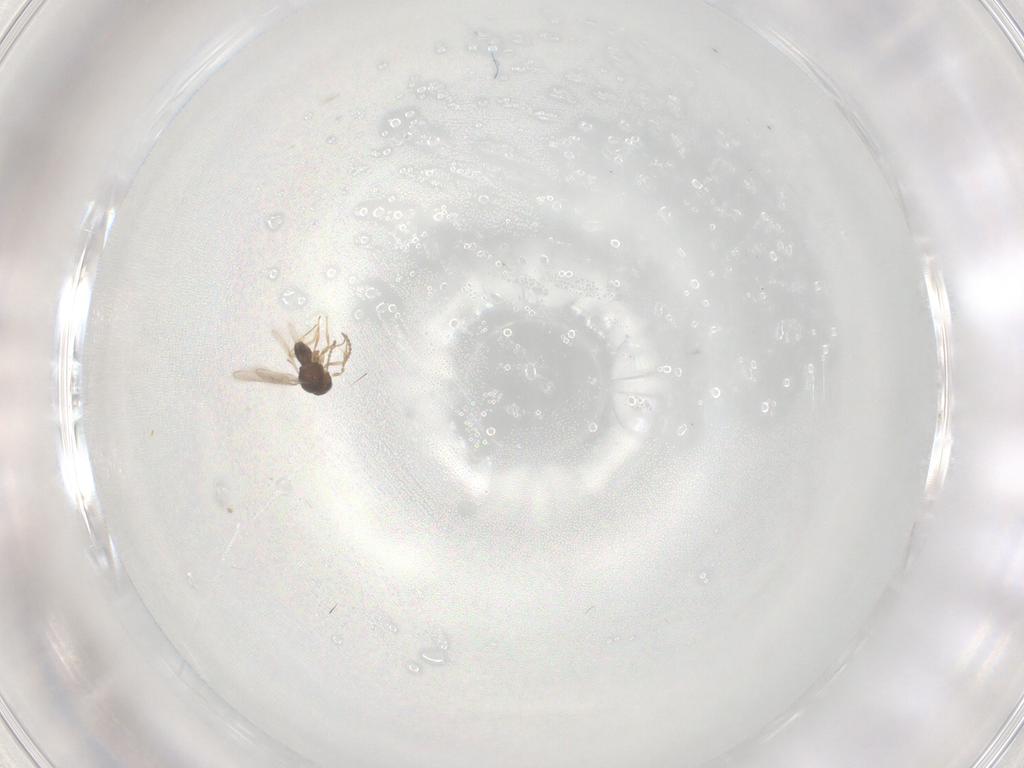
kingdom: Animalia
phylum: Arthropoda
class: Insecta
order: Hymenoptera
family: Scelionidae
